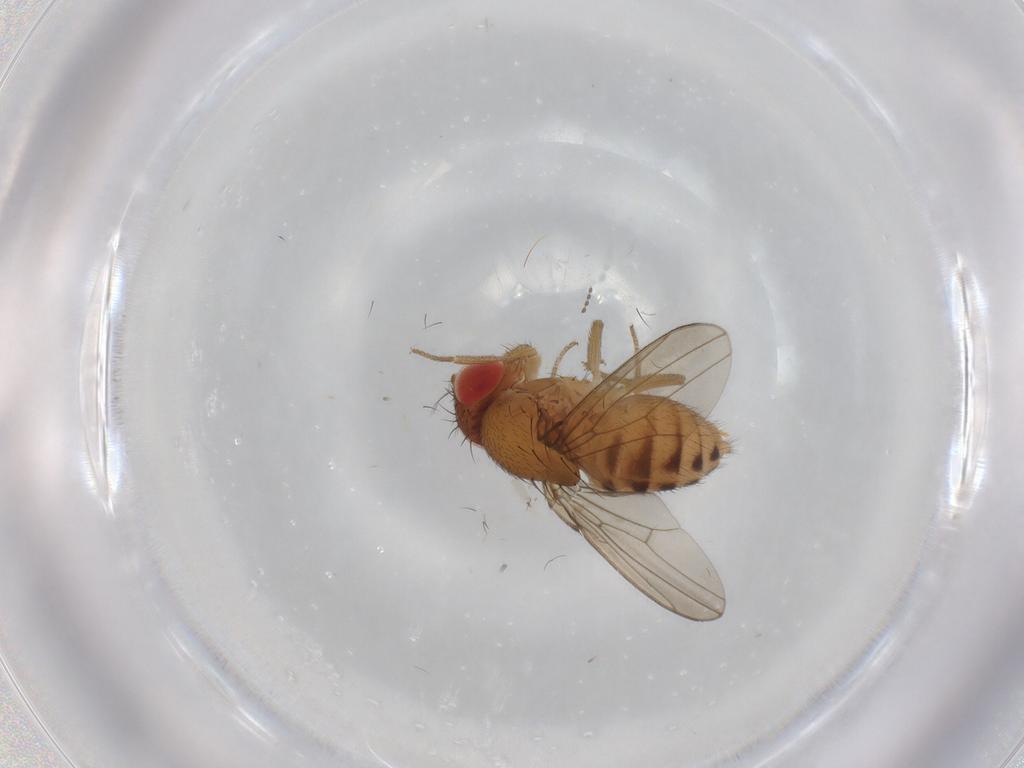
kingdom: Animalia
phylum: Arthropoda
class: Insecta
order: Diptera
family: Drosophilidae
